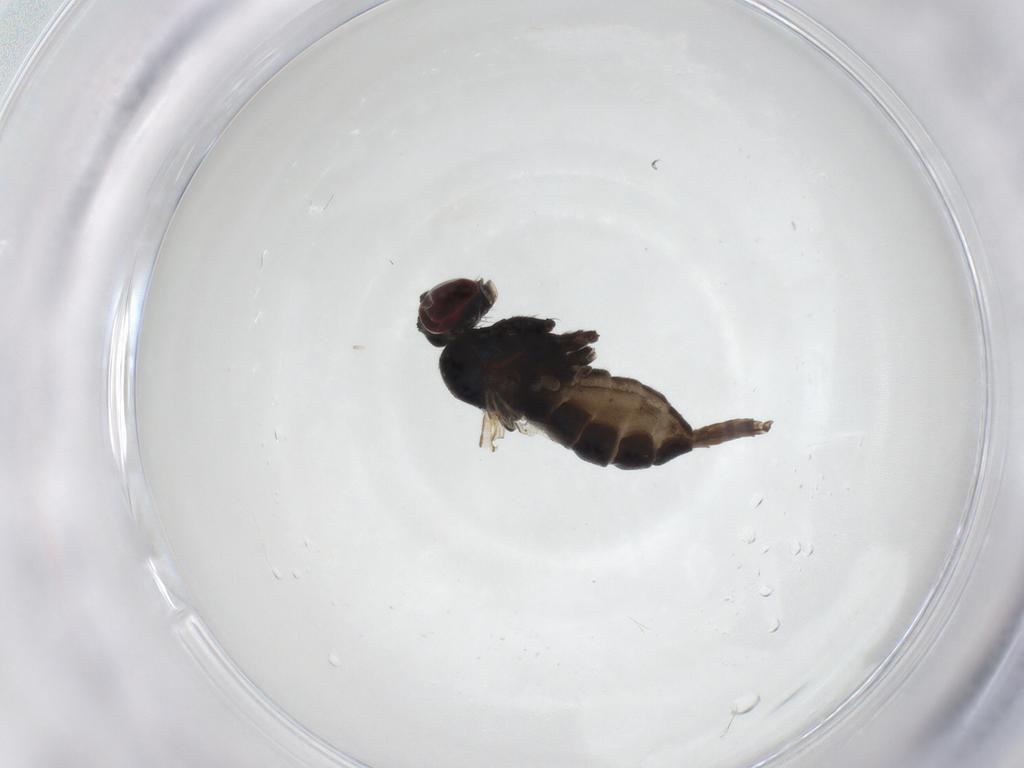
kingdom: Animalia
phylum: Arthropoda
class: Insecta
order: Diptera
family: Dolichopodidae
